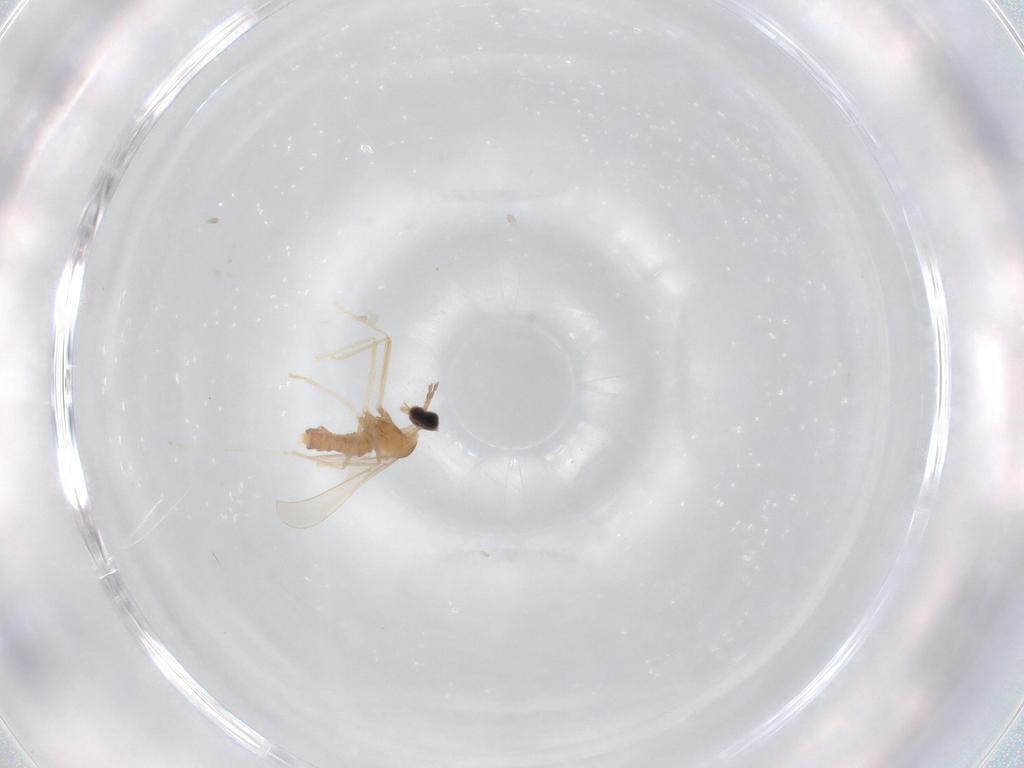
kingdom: Animalia
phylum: Arthropoda
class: Insecta
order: Diptera
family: Cecidomyiidae
